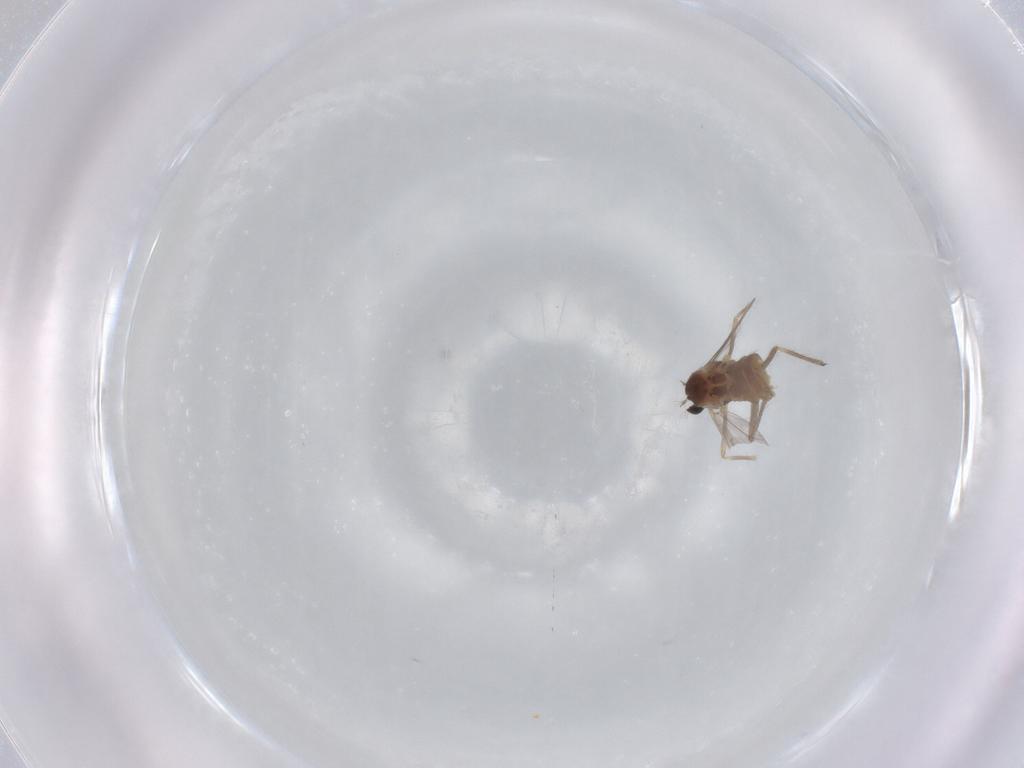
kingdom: Animalia
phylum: Arthropoda
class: Insecta
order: Diptera
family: Chironomidae
